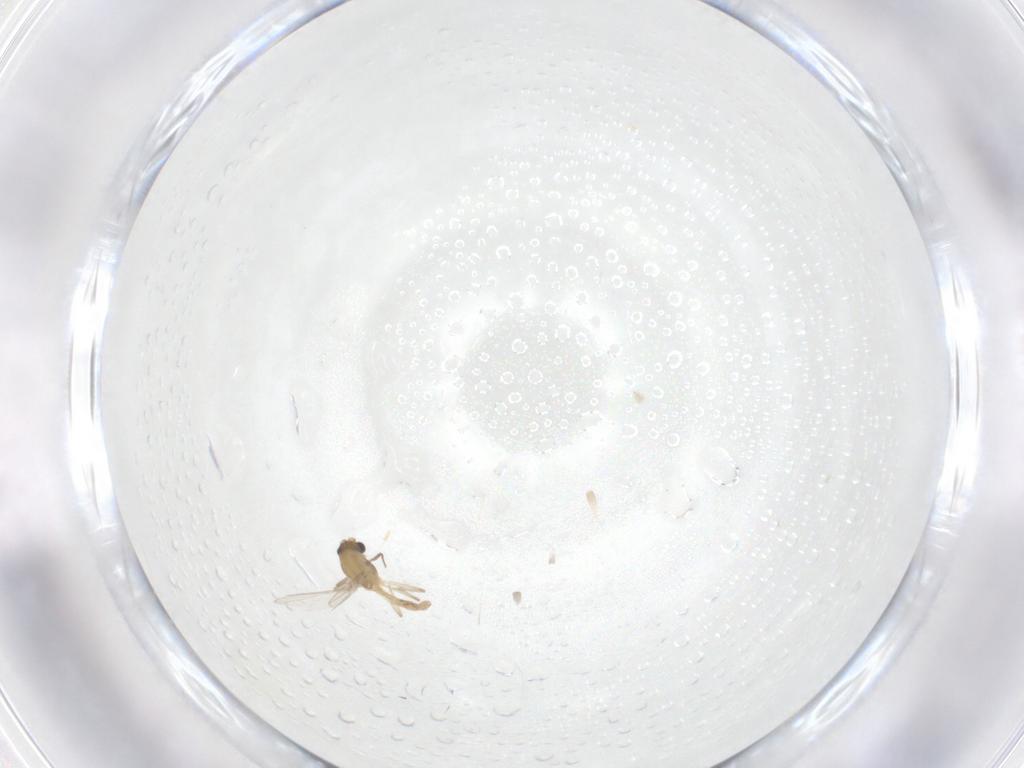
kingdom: Animalia
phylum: Arthropoda
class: Insecta
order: Diptera
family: Chironomidae
